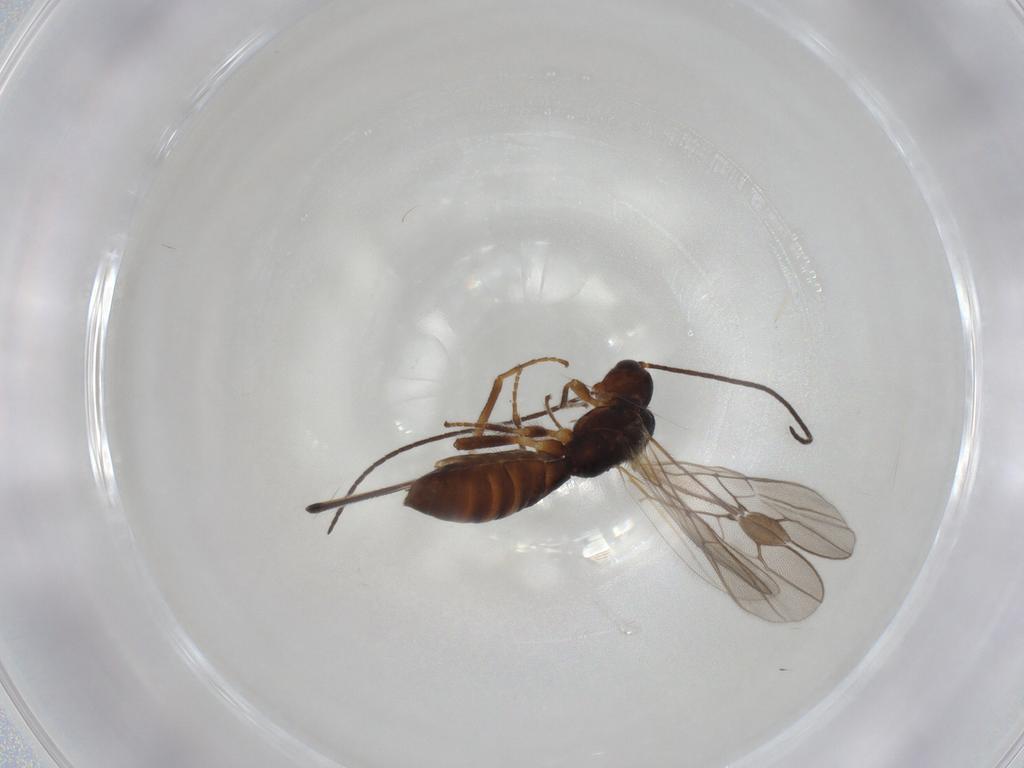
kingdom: Animalia
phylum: Arthropoda
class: Insecta
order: Hymenoptera
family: Braconidae
